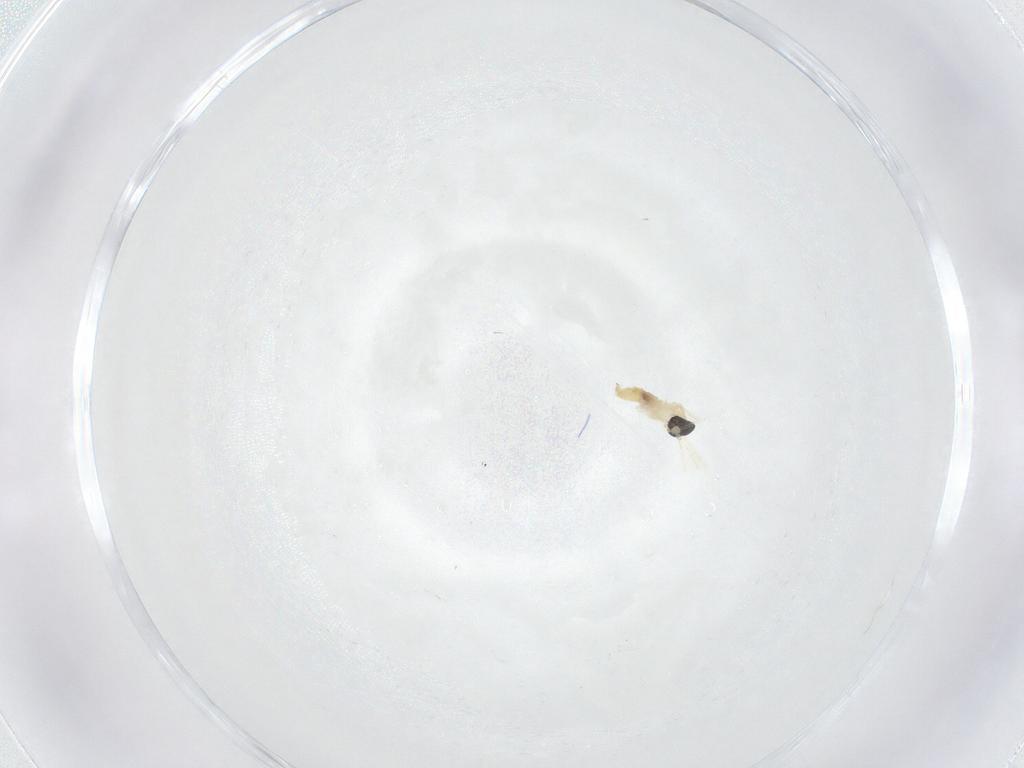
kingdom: Animalia
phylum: Arthropoda
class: Insecta
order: Diptera
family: Cecidomyiidae
